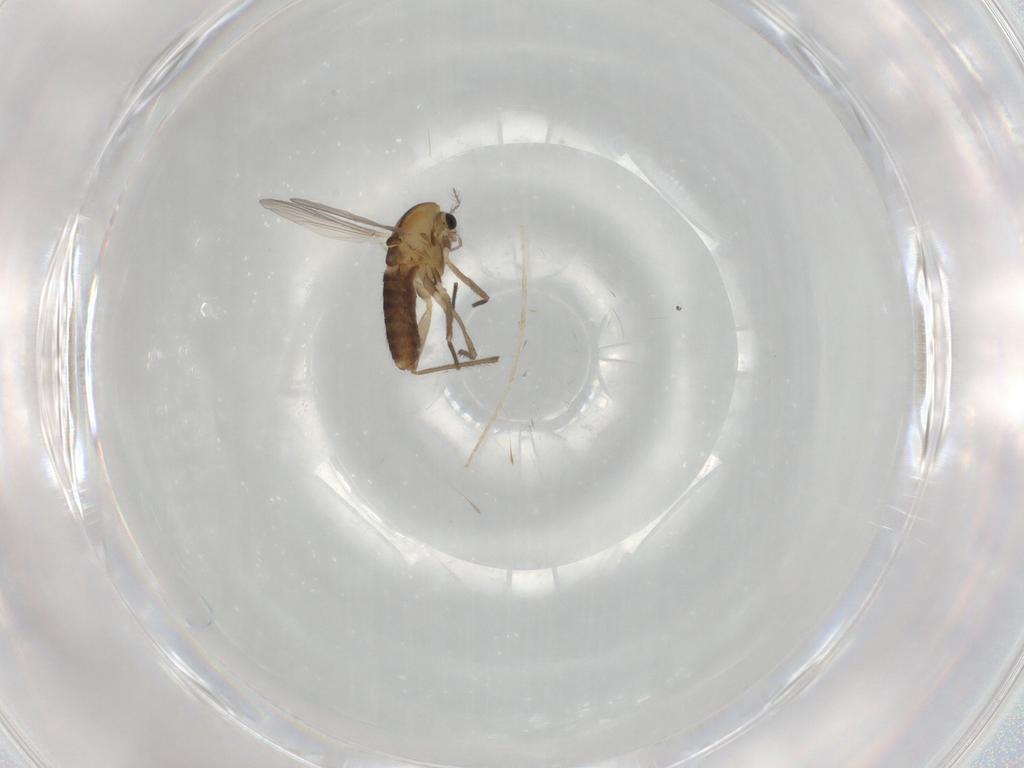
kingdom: Animalia
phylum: Arthropoda
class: Insecta
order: Diptera
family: Chironomidae
